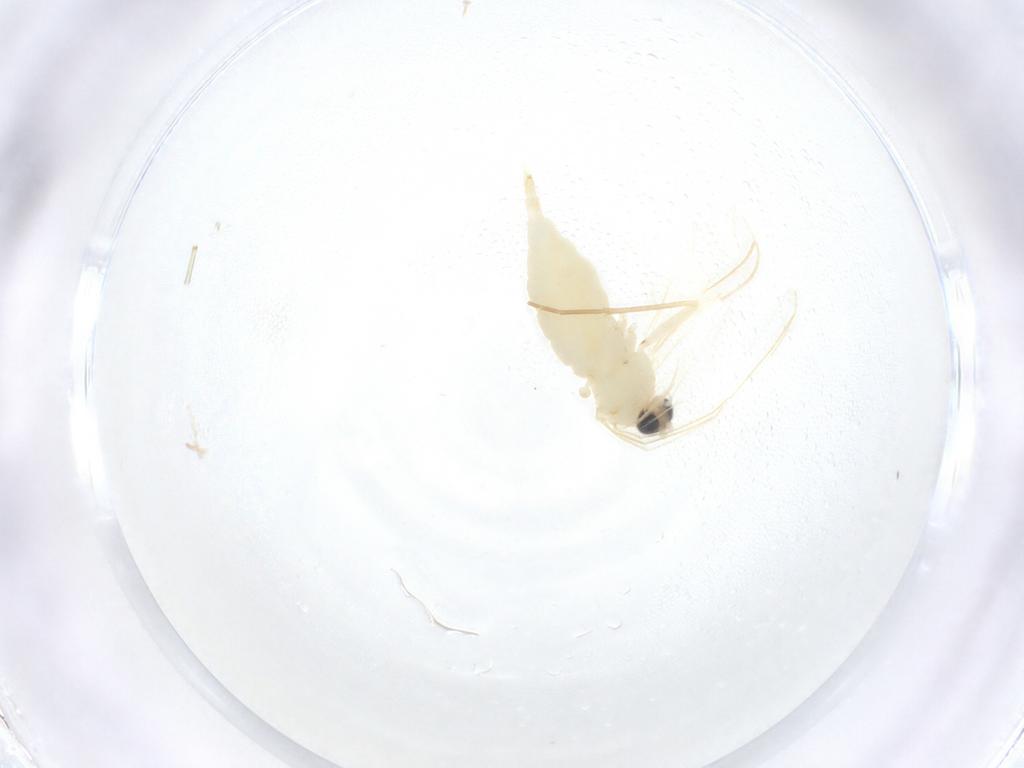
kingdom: Animalia
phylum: Arthropoda
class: Insecta
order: Diptera
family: Sciaridae
